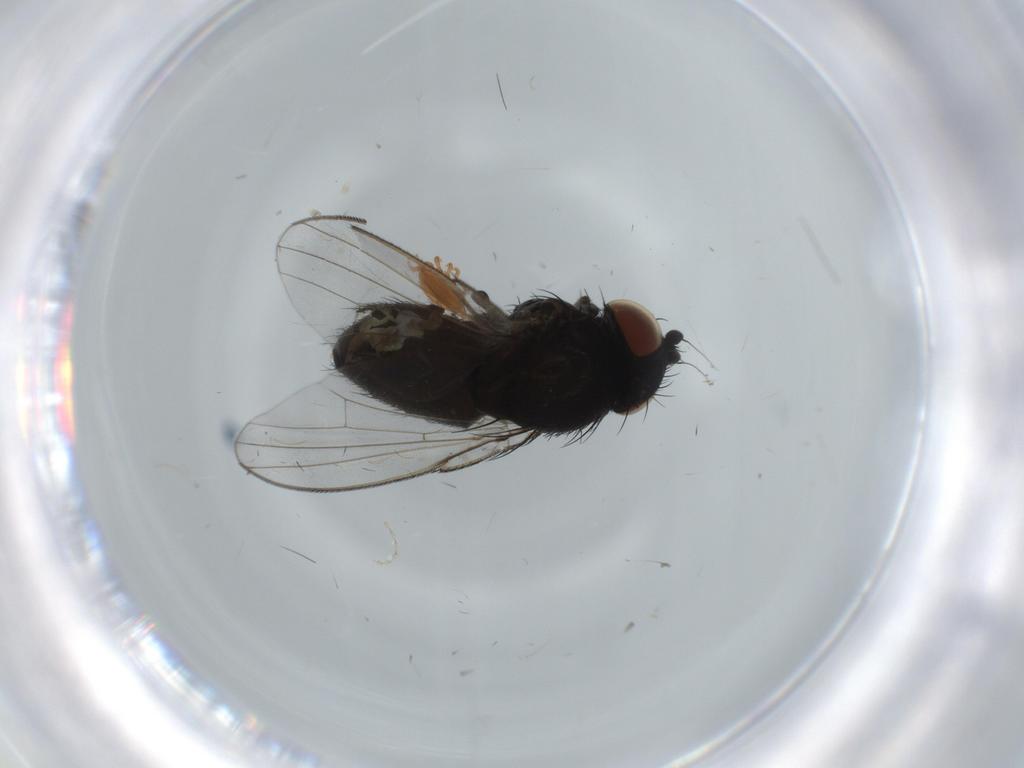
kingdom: Animalia
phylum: Arthropoda
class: Insecta
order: Diptera
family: Milichiidae
